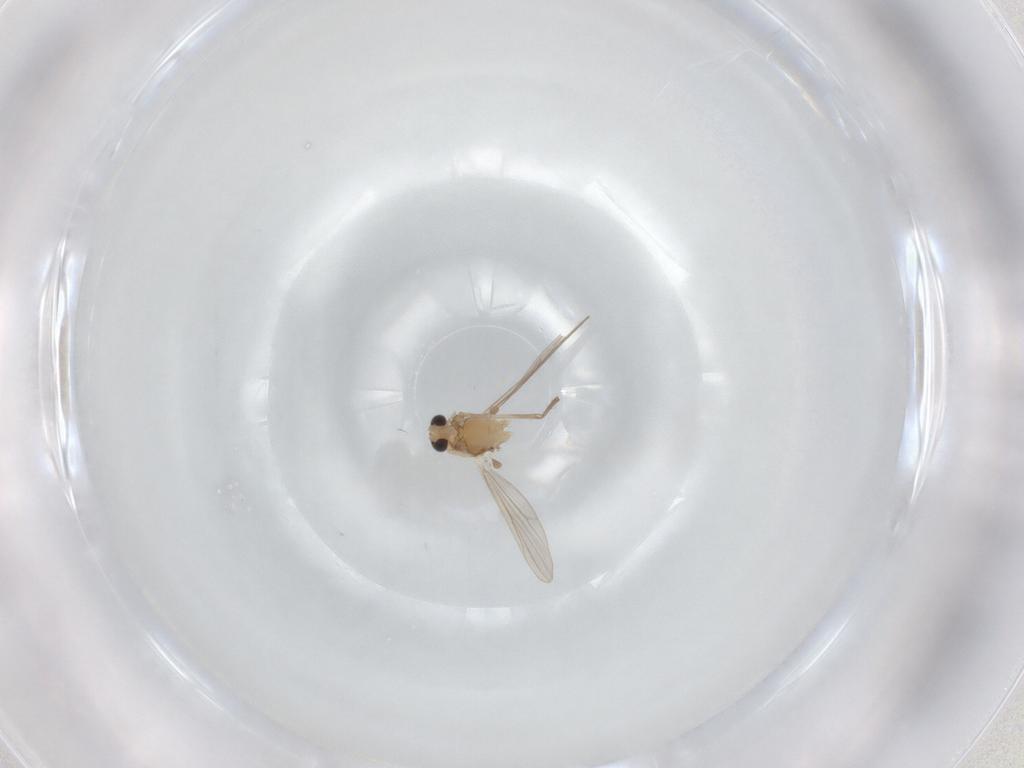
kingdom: Animalia
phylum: Arthropoda
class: Insecta
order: Diptera
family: Chironomidae
